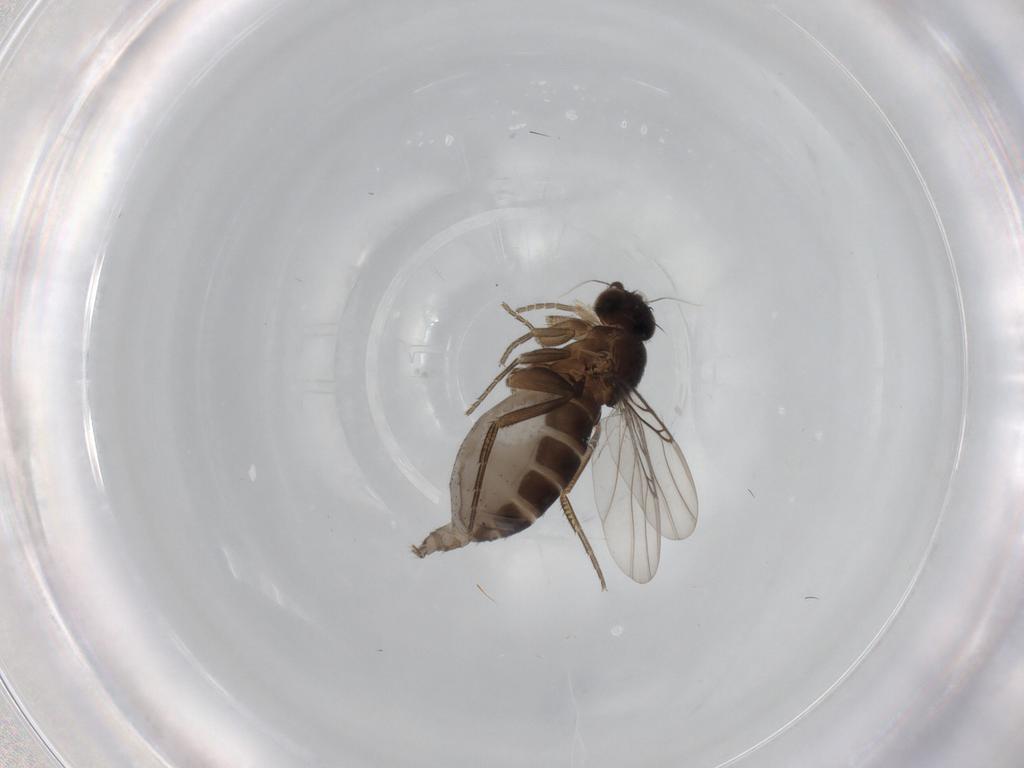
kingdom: Animalia
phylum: Arthropoda
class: Insecta
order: Diptera
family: Phoridae
